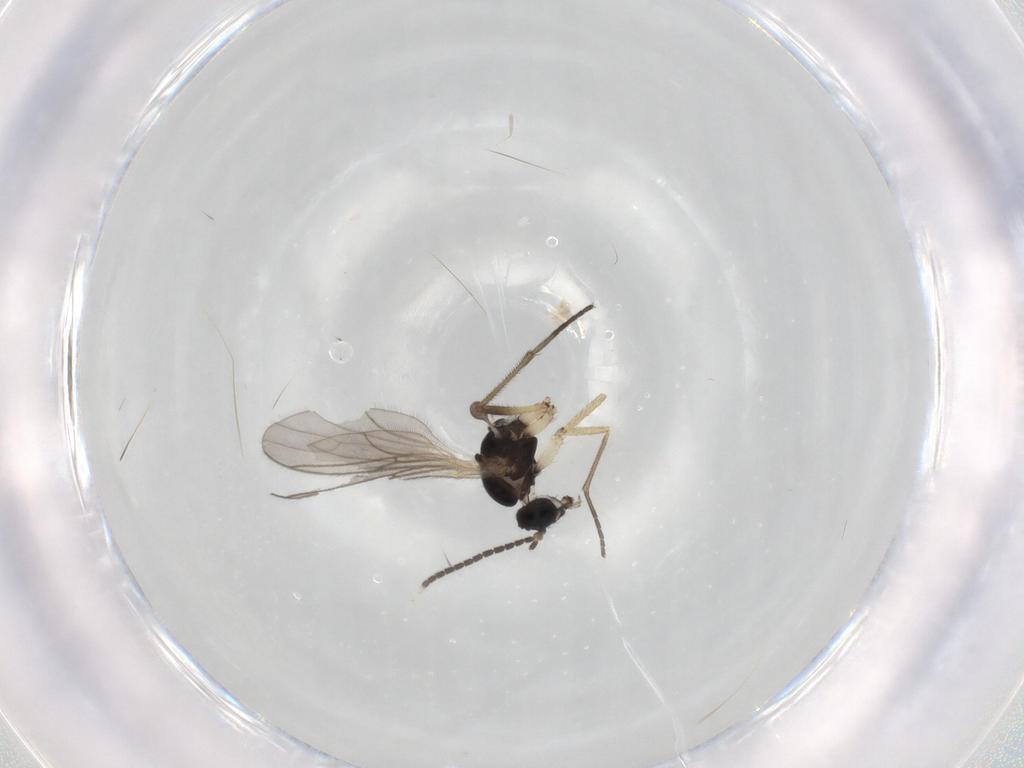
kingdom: Animalia
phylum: Arthropoda
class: Insecta
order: Diptera
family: Sciaridae
